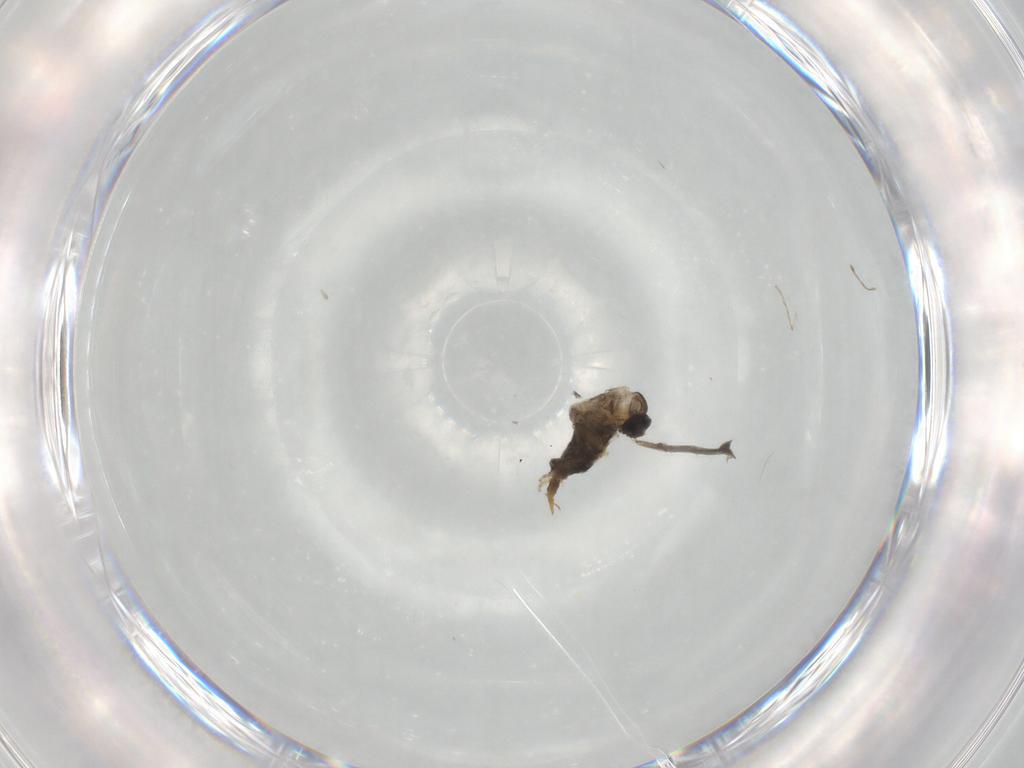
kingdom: Animalia
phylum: Arthropoda
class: Insecta
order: Diptera
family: Cecidomyiidae
